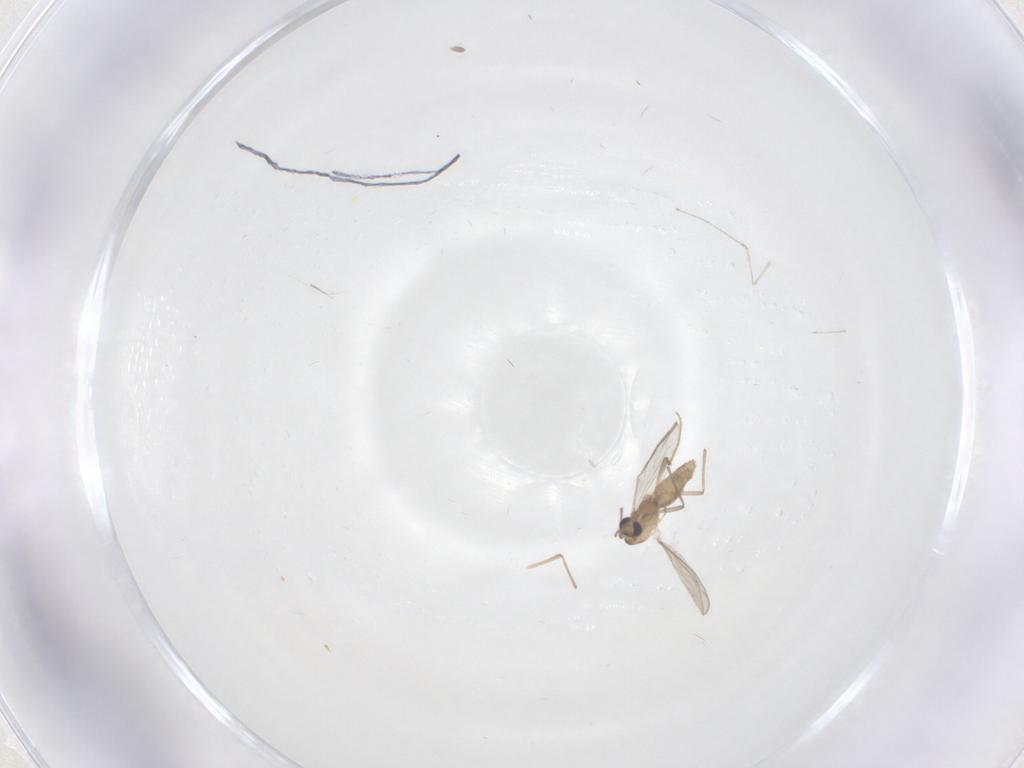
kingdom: Animalia
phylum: Arthropoda
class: Insecta
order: Diptera
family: Chironomidae
